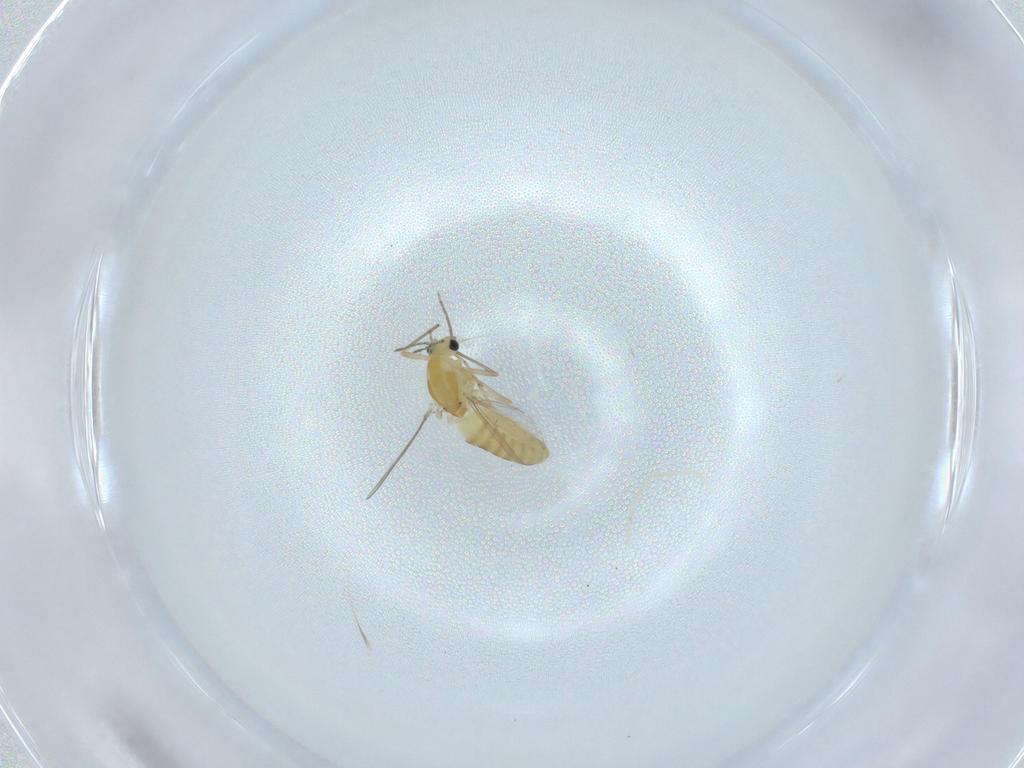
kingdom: Animalia
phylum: Arthropoda
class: Insecta
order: Diptera
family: Chironomidae
